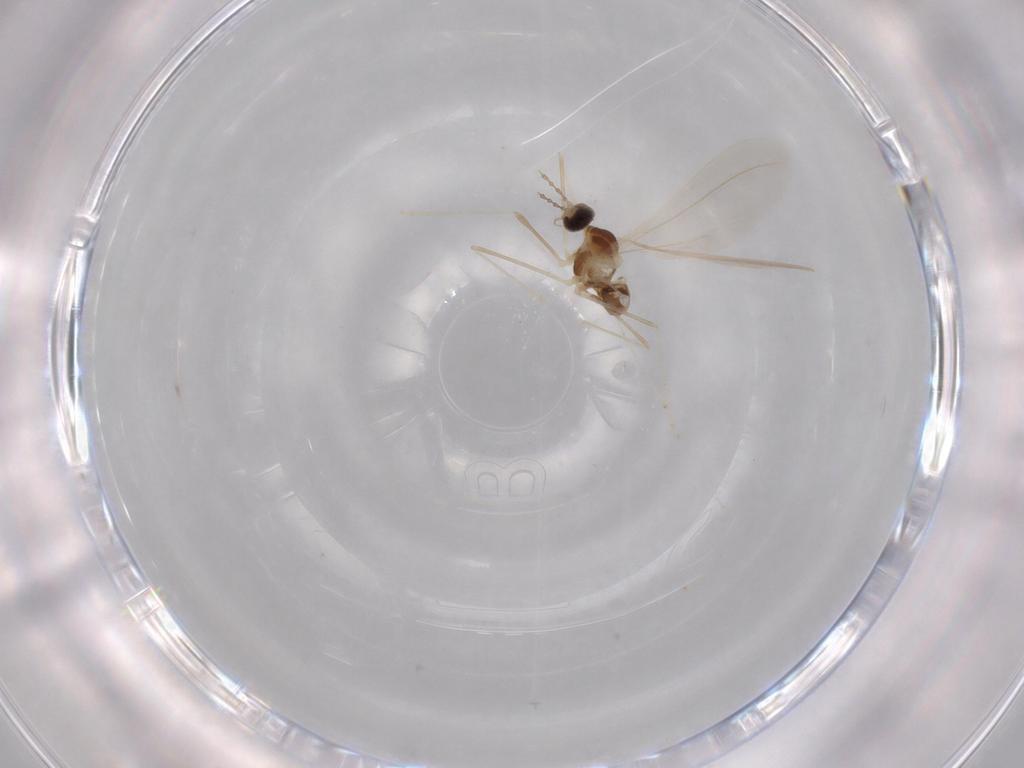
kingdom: Animalia
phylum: Arthropoda
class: Insecta
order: Diptera
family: Cecidomyiidae
